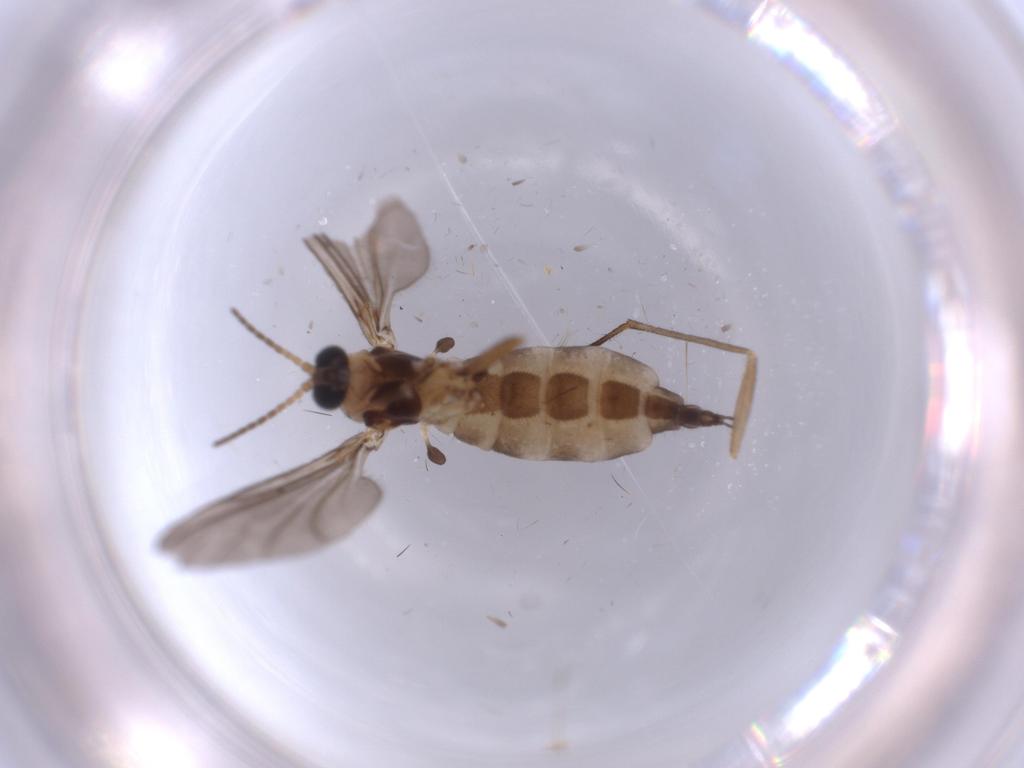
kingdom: Animalia
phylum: Arthropoda
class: Insecta
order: Diptera
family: Sciaridae
